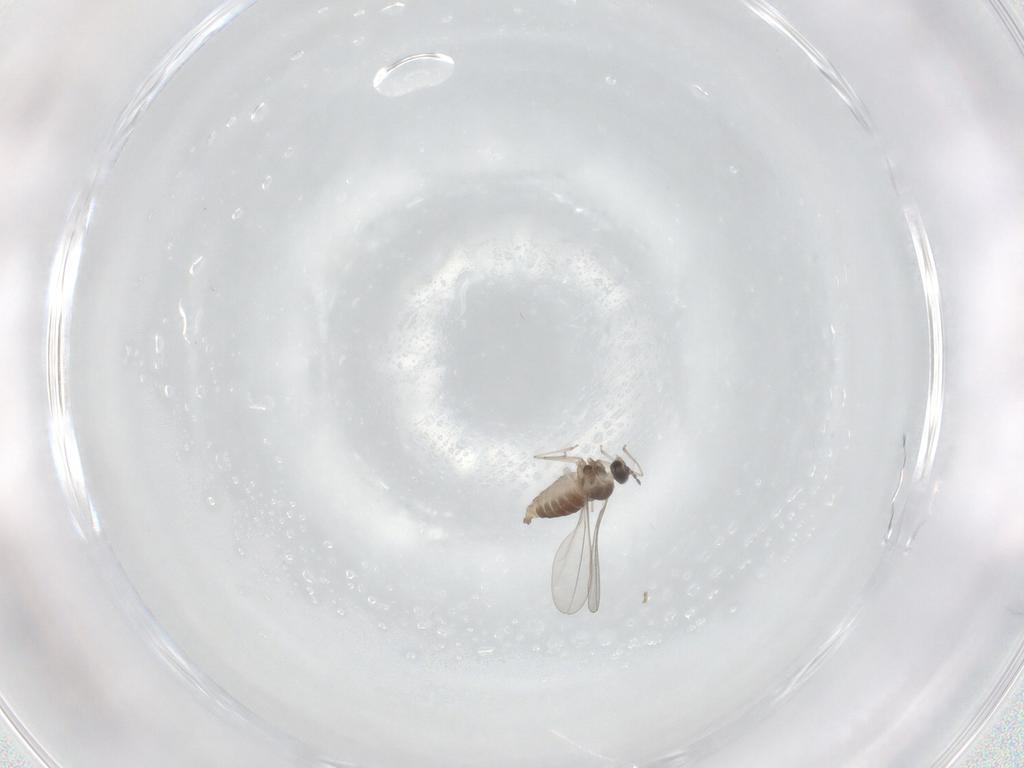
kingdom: Animalia
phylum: Arthropoda
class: Insecta
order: Diptera
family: Cecidomyiidae
